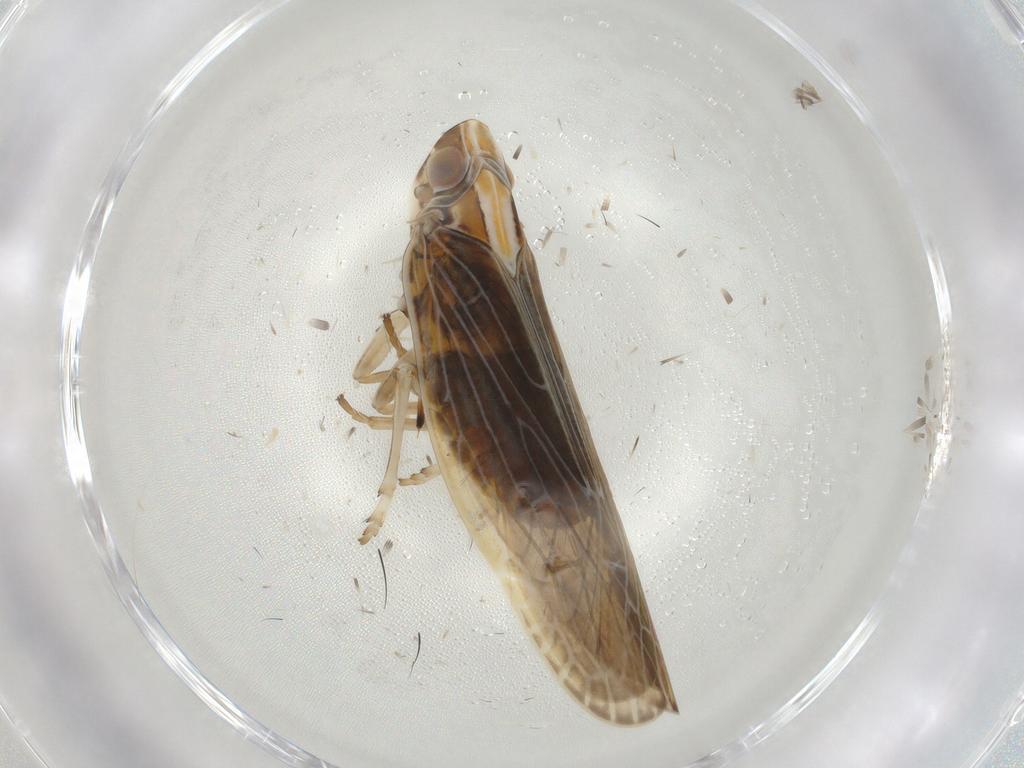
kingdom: Animalia
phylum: Arthropoda
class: Insecta
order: Hemiptera
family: Achilidae
